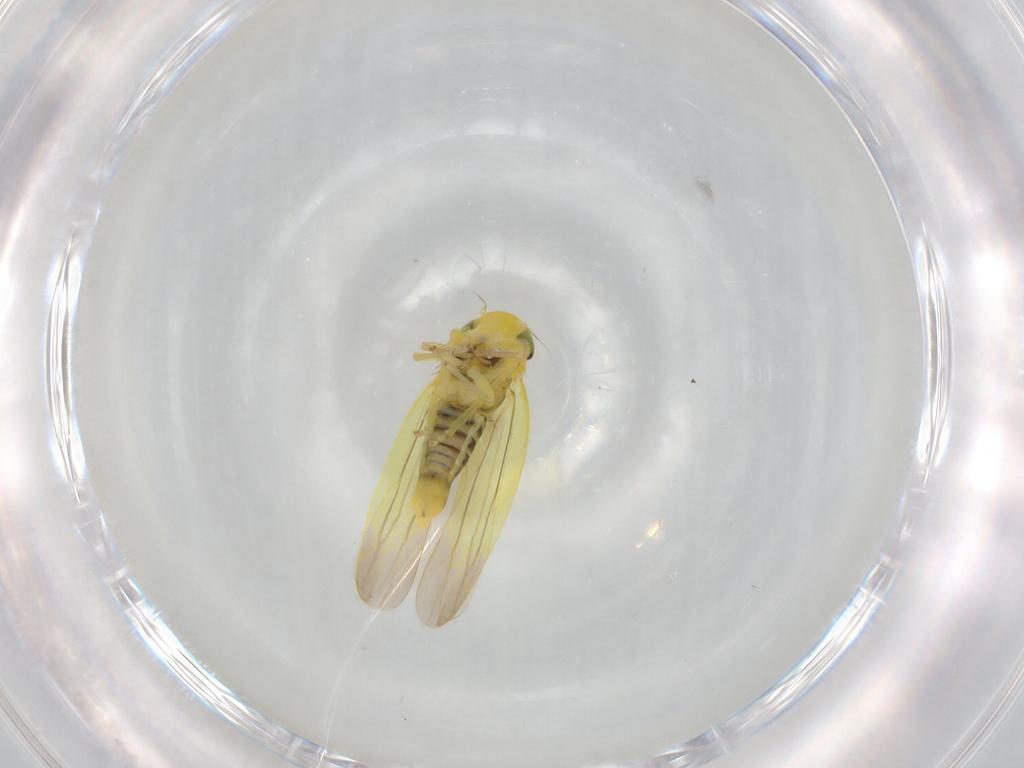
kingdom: Animalia
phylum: Arthropoda
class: Insecta
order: Hemiptera
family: Cicadellidae
